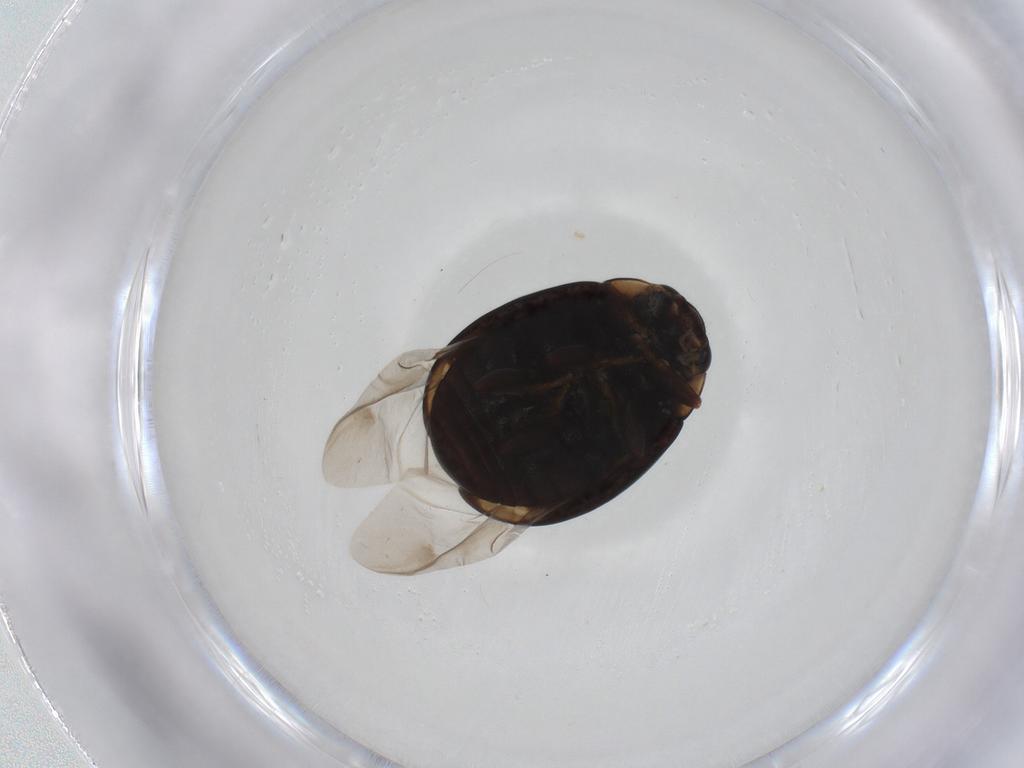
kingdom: Animalia
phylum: Arthropoda
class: Insecta
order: Coleoptera
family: Coccinellidae
